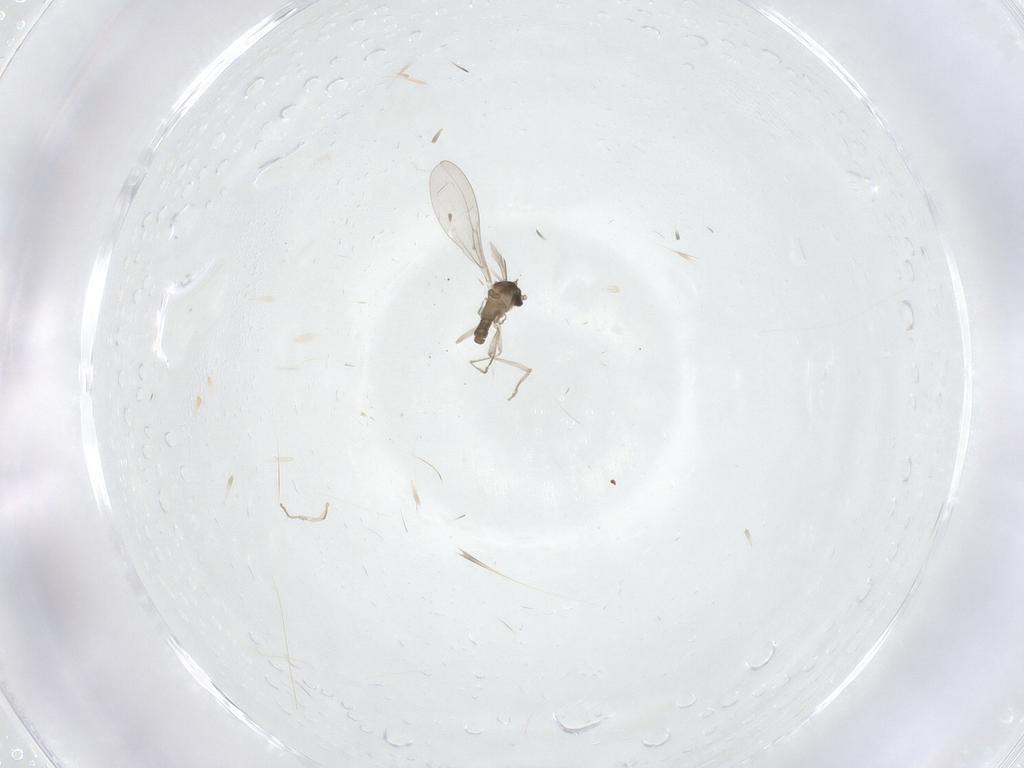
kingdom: Animalia
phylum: Arthropoda
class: Insecta
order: Diptera
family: Cecidomyiidae
